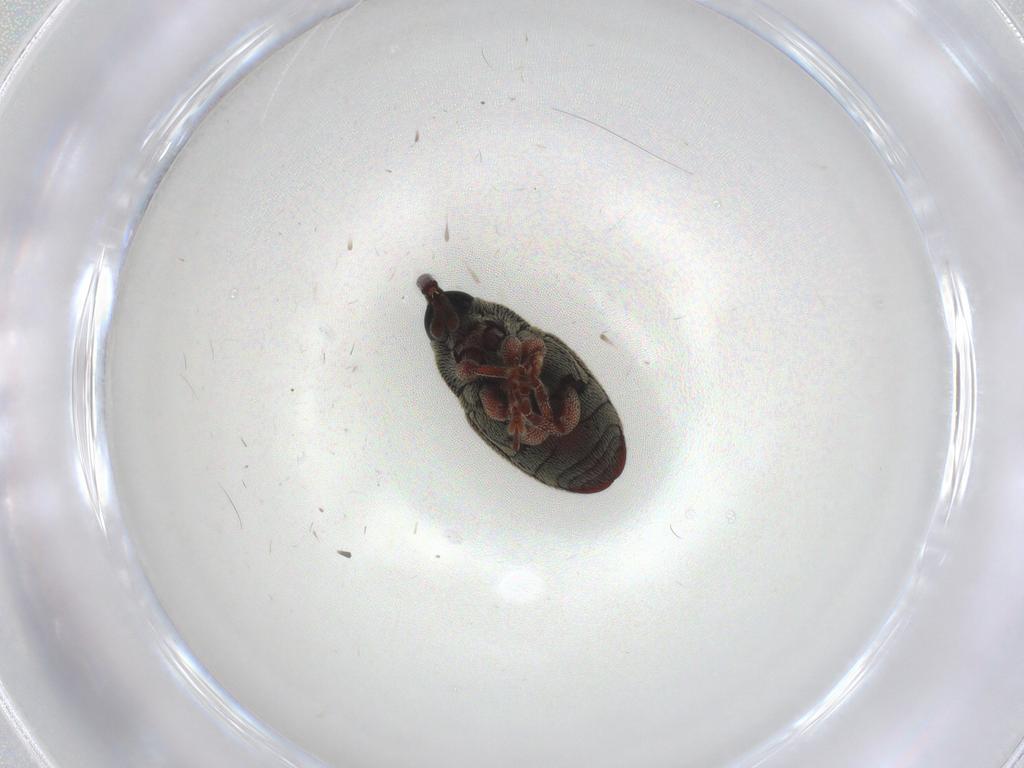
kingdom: Animalia
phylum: Arthropoda
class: Insecta
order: Coleoptera
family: Curculionidae
